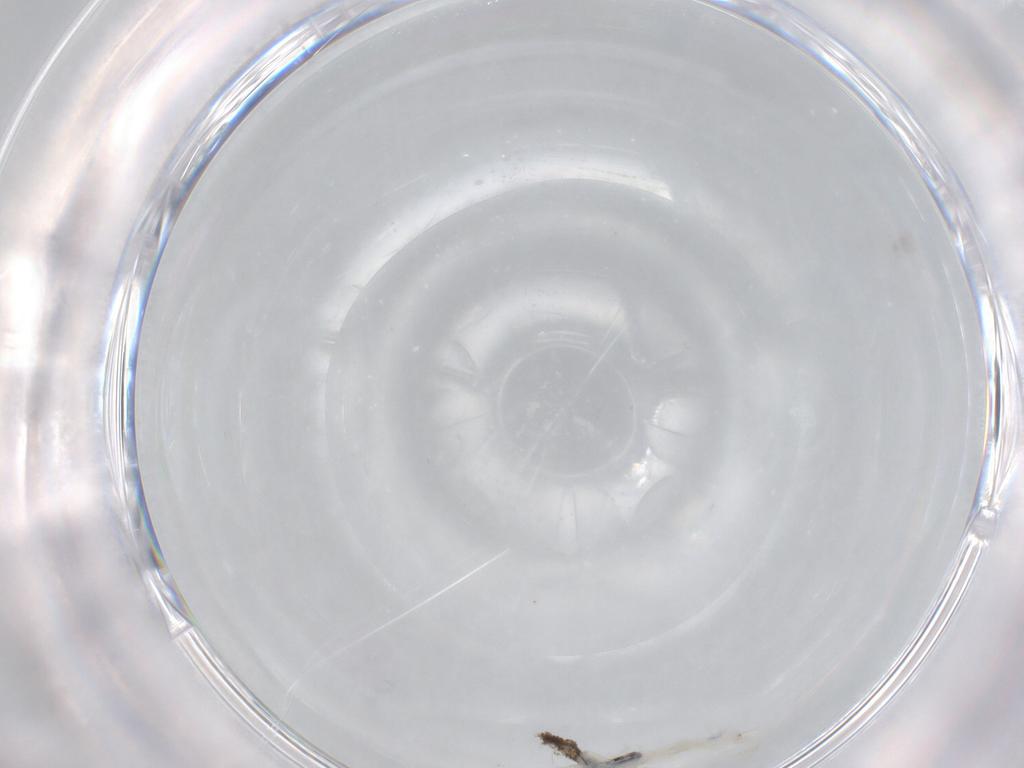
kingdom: Animalia
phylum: Arthropoda
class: Collembola
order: Entomobryomorpha
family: Entomobryidae
